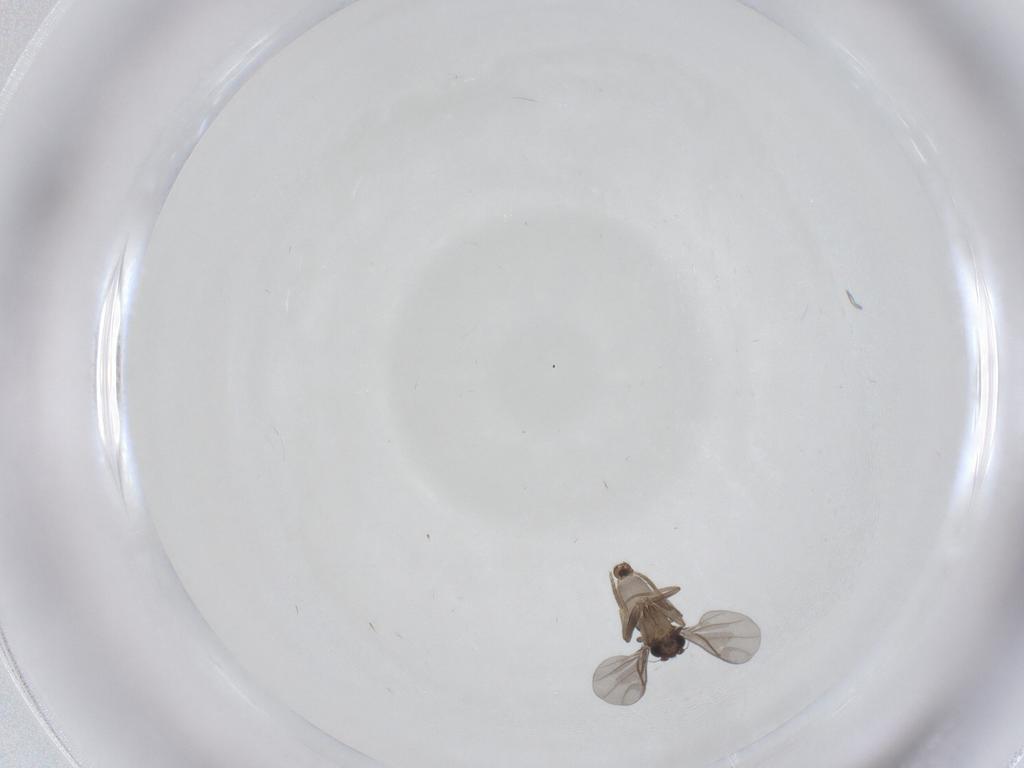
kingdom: Animalia
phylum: Arthropoda
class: Insecta
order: Diptera
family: Ceratopogonidae
